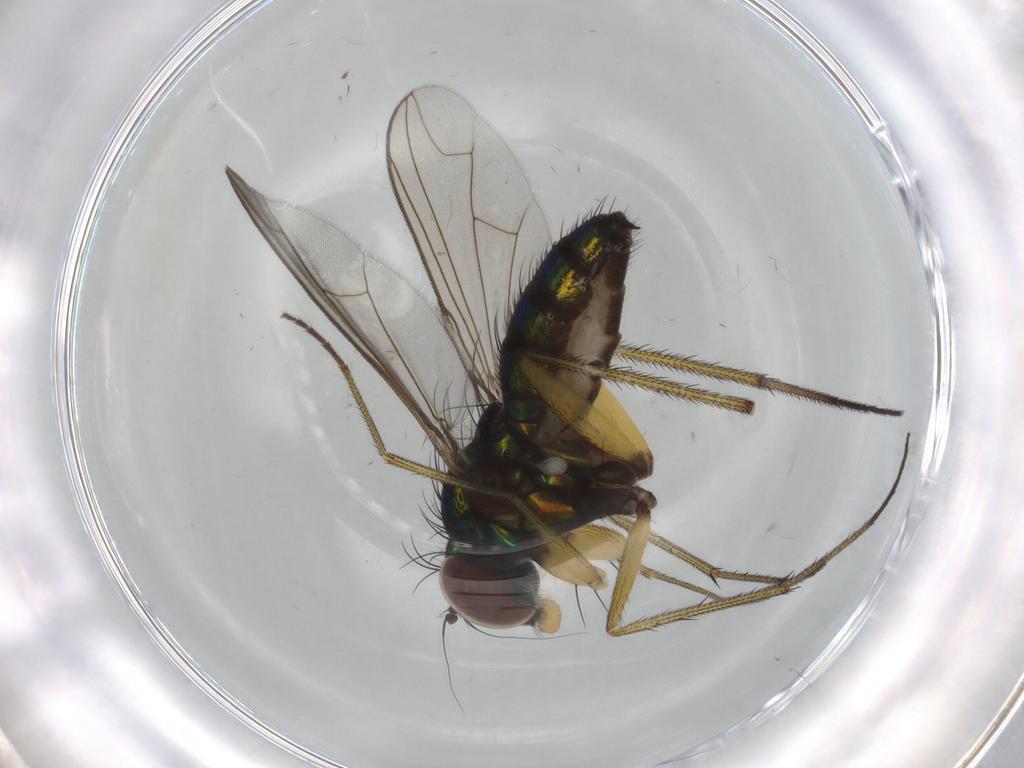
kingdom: Animalia
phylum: Arthropoda
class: Insecta
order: Diptera
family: Dolichopodidae
